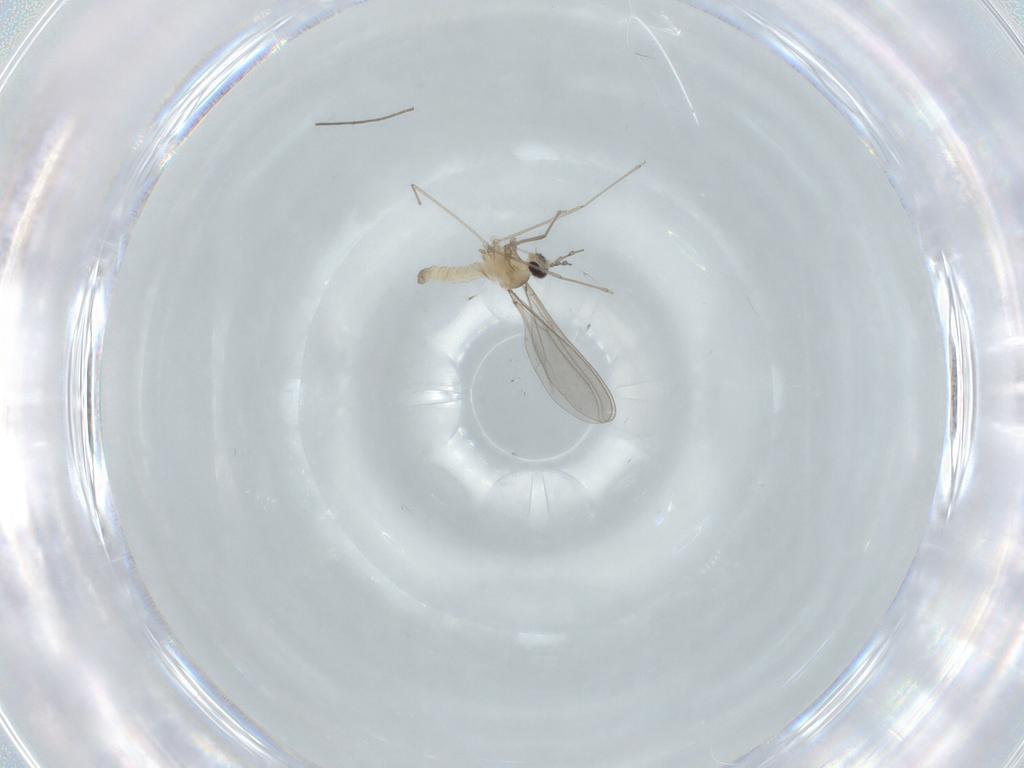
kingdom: Animalia
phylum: Arthropoda
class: Insecta
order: Diptera
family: Cecidomyiidae
